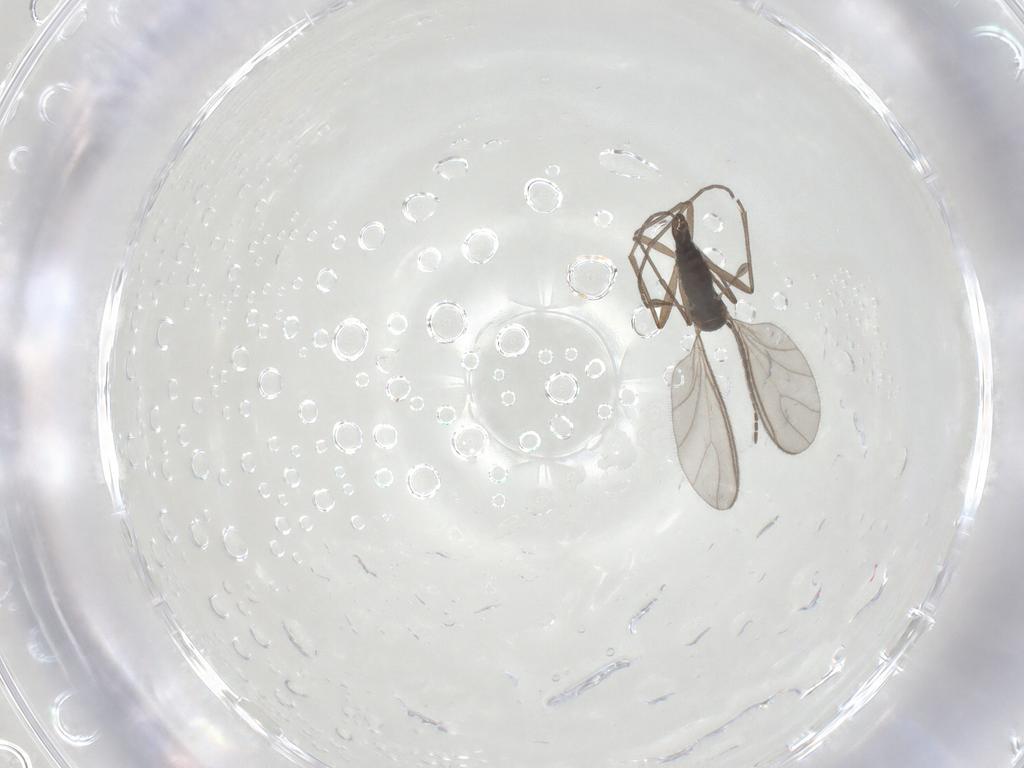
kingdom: Animalia
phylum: Arthropoda
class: Insecta
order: Diptera
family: Sciaridae
